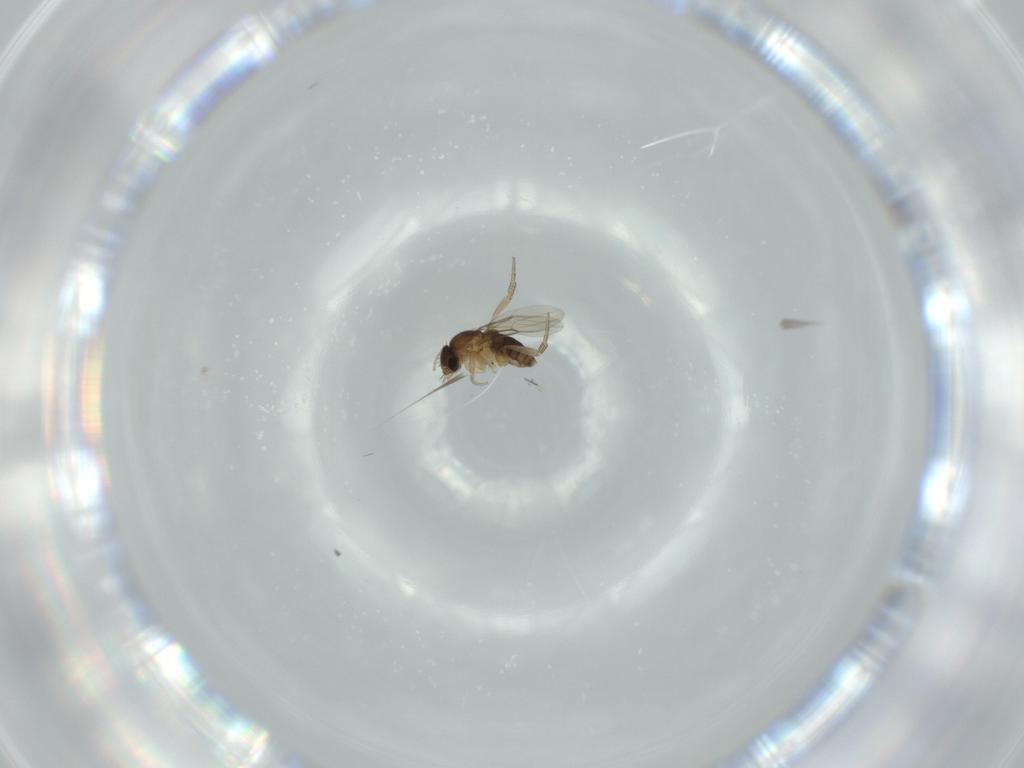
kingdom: Animalia
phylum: Arthropoda
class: Insecta
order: Diptera
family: Phoridae
